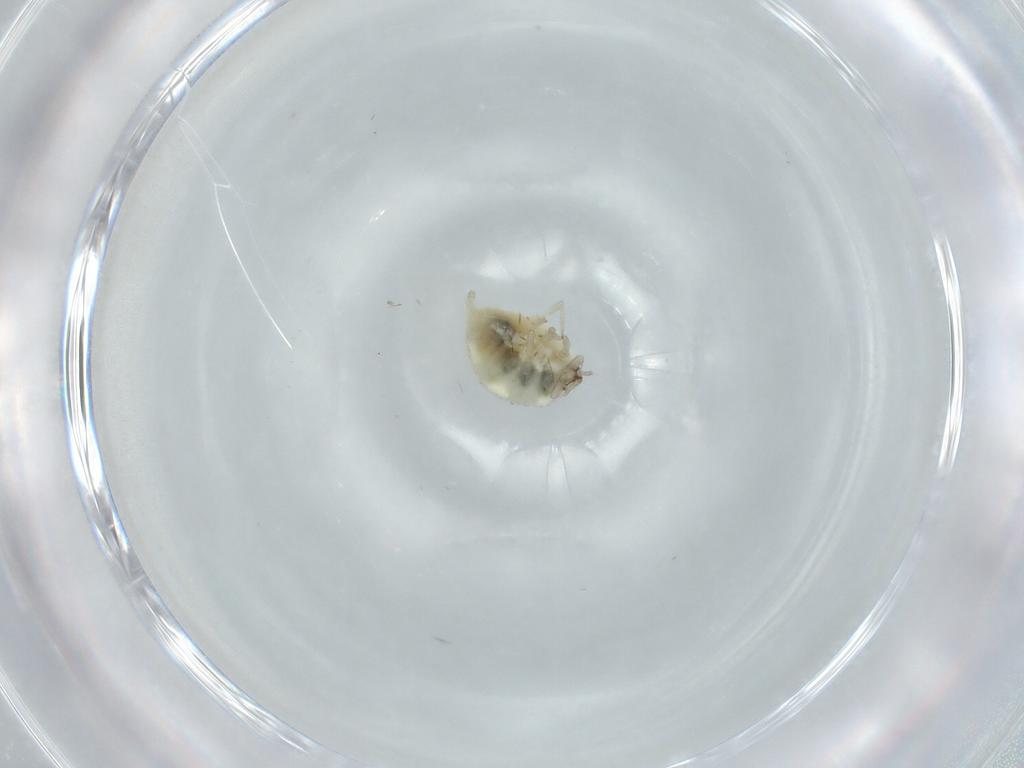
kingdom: Animalia
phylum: Arthropoda
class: Insecta
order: Neuroptera
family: Coniopterygidae
